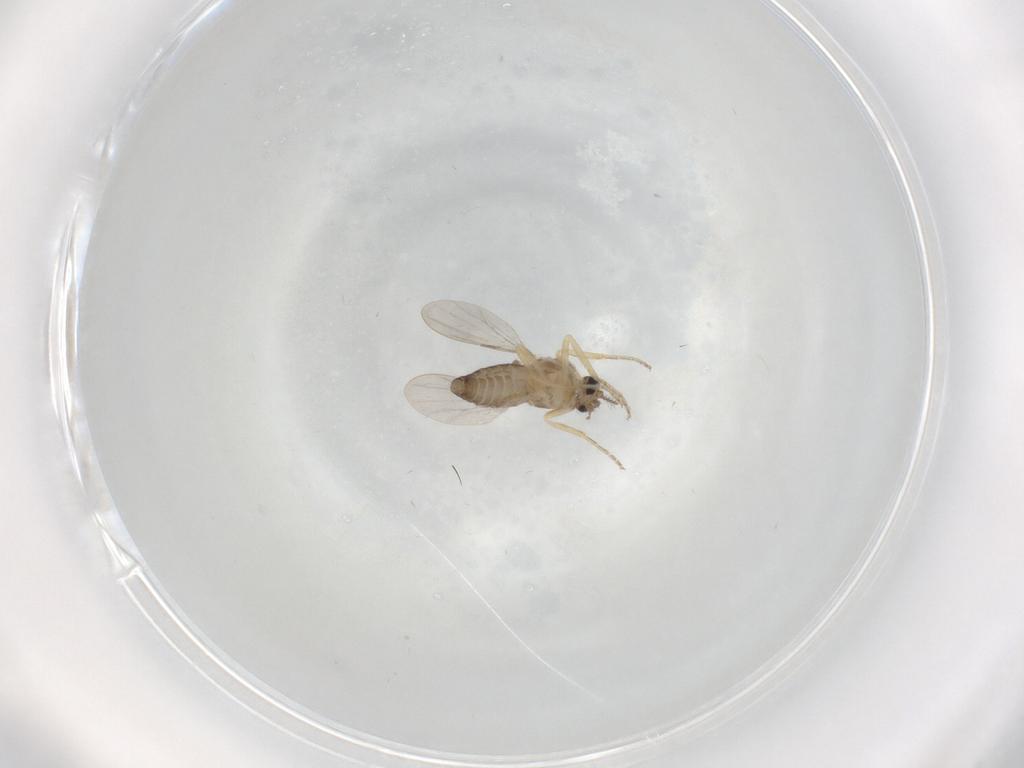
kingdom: Animalia
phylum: Arthropoda
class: Insecta
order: Diptera
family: Ceratopogonidae
